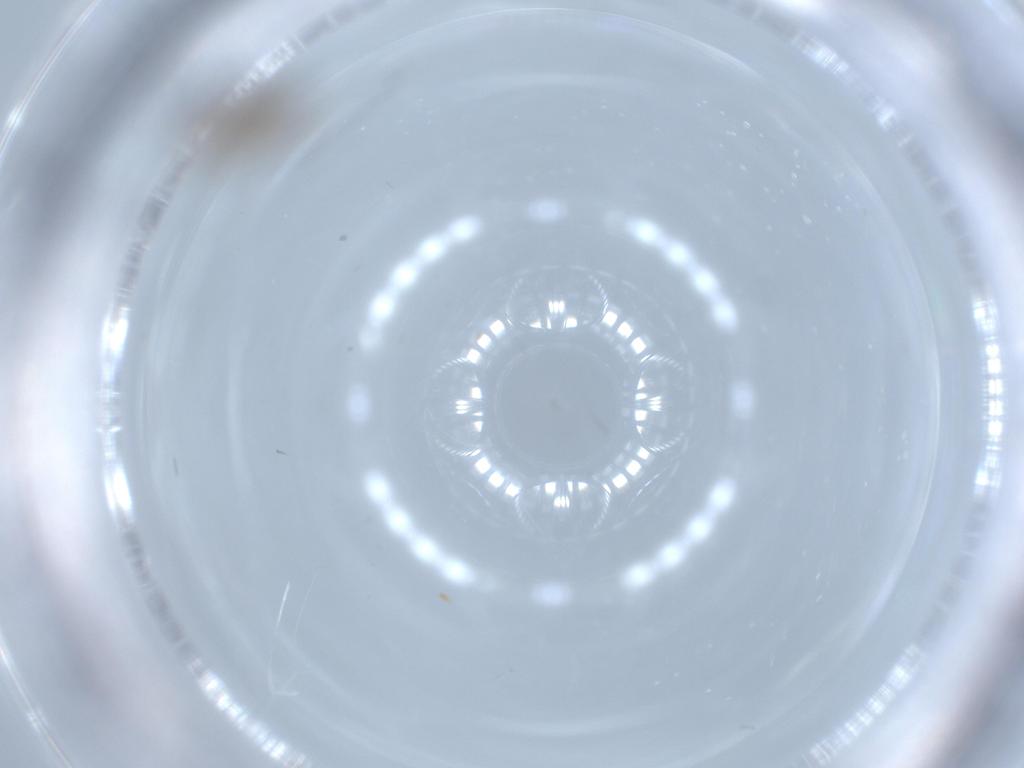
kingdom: Animalia
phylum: Arthropoda
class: Insecta
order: Psocodea
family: Lepidopsocidae
